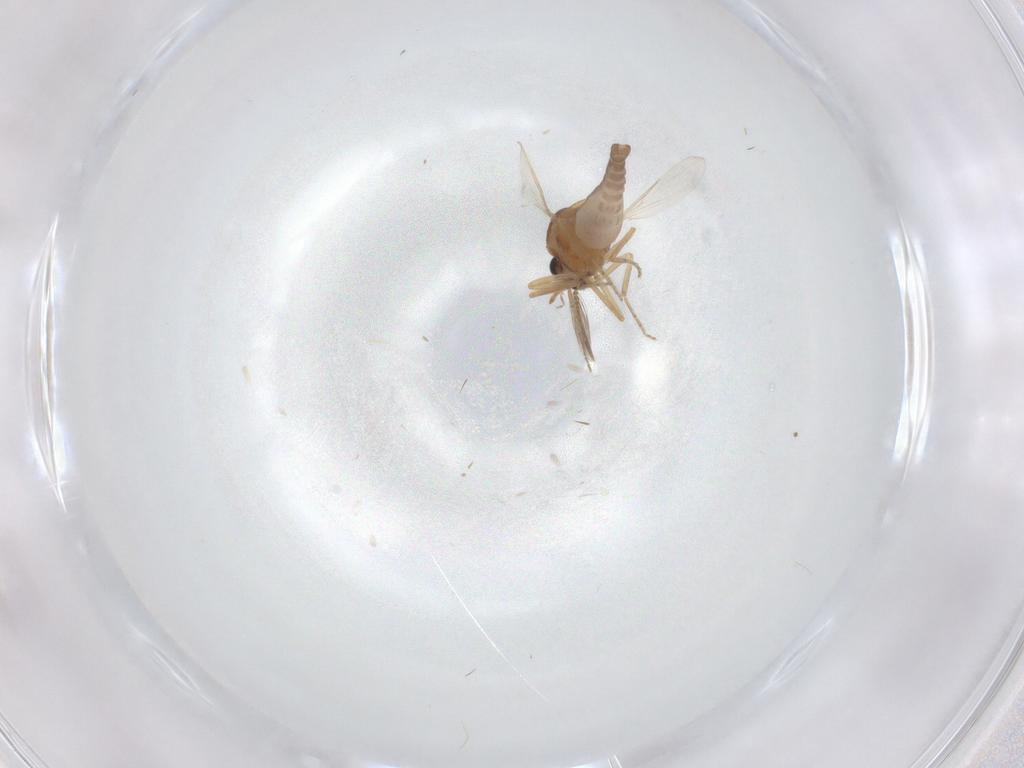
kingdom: Animalia
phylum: Arthropoda
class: Insecta
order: Diptera
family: Ceratopogonidae
